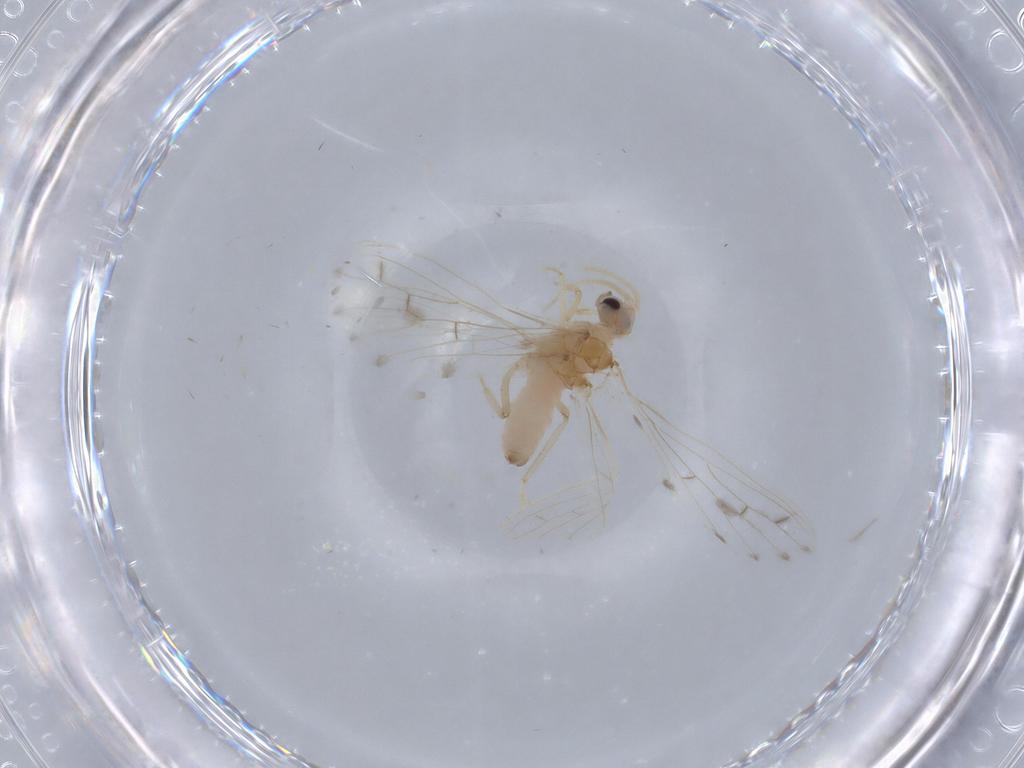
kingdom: Animalia
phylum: Arthropoda
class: Insecta
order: Neuroptera
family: Coniopterygidae
